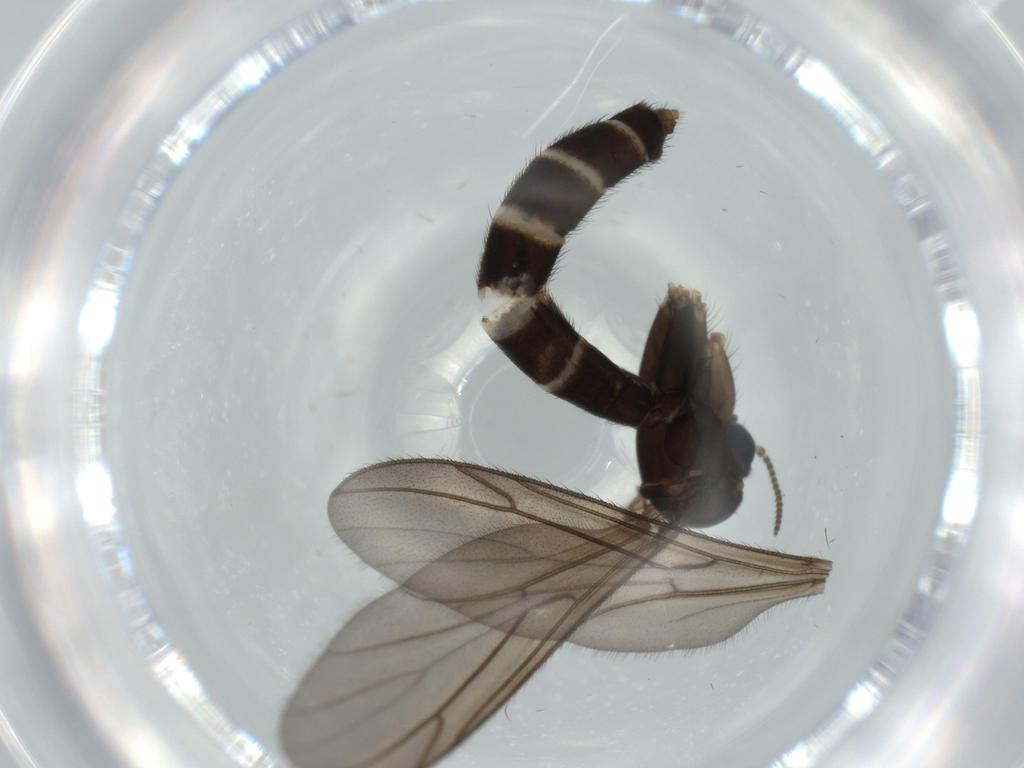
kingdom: Animalia
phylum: Arthropoda
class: Insecta
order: Diptera
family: Ditomyiidae
